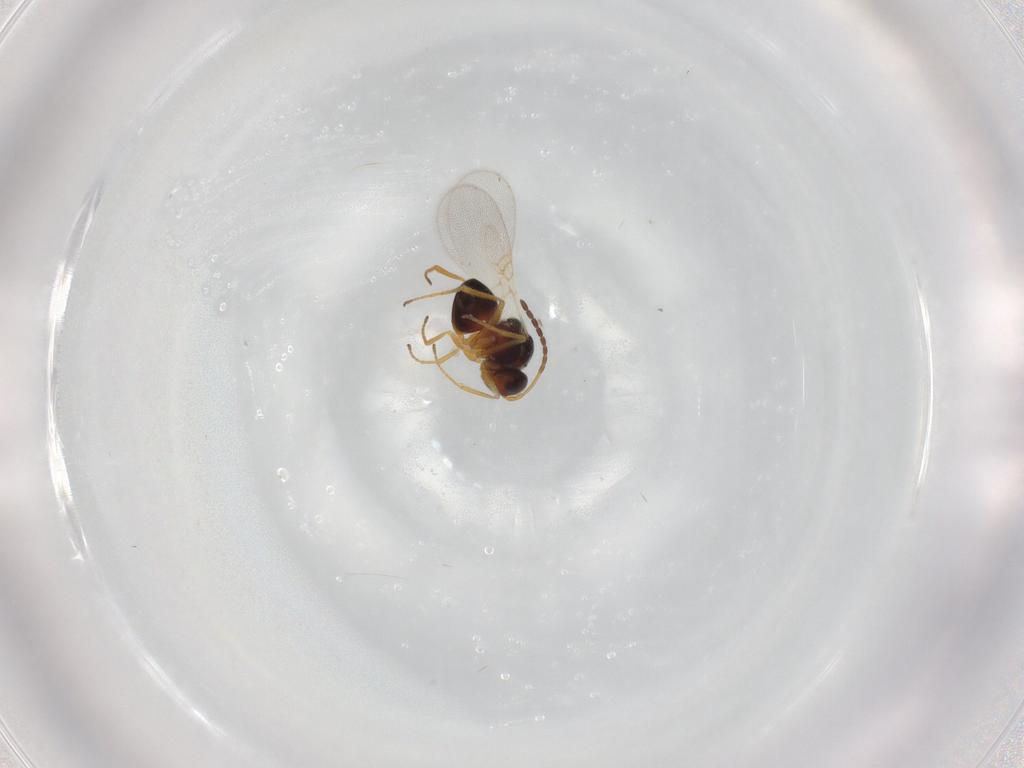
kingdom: Animalia
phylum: Arthropoda
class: Insecta
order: Hymenoptera
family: Figitidae
